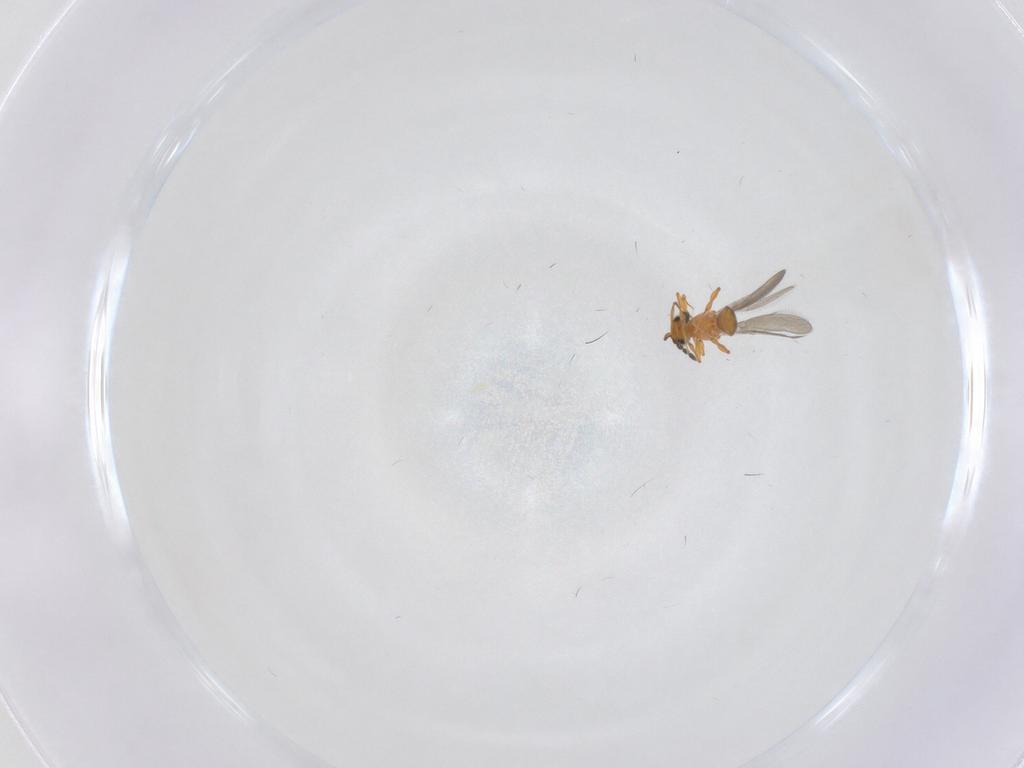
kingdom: Animalia
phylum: Arthropoda
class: Insecta
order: Hymenoptera
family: Platygastridae
